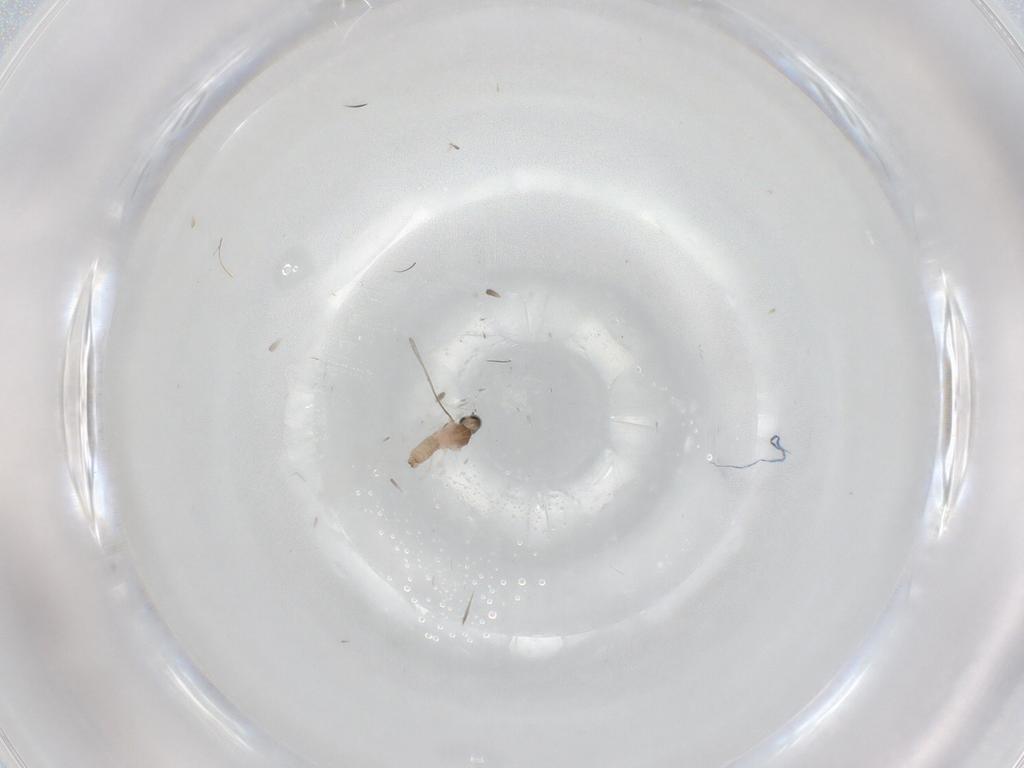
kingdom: Animalia
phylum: Arthropoda
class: Insecta
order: Diptera
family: Cecidomyiidae
